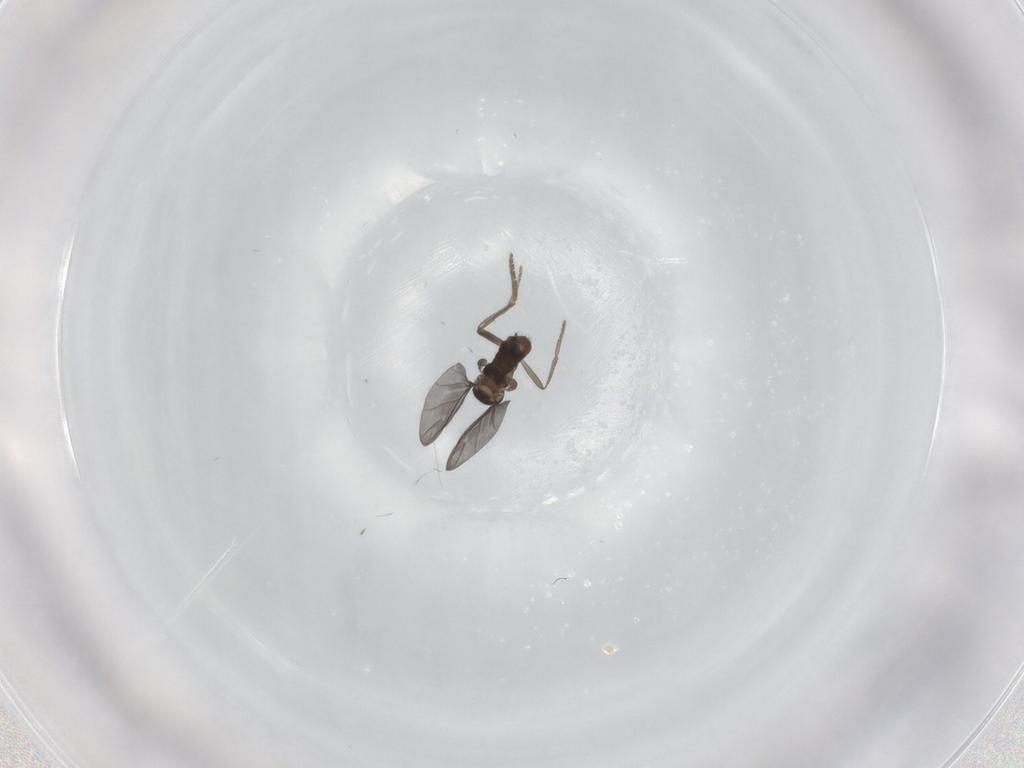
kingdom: Animalia
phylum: Arthropoda
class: Insecta
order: Diptera
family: Phoridae
